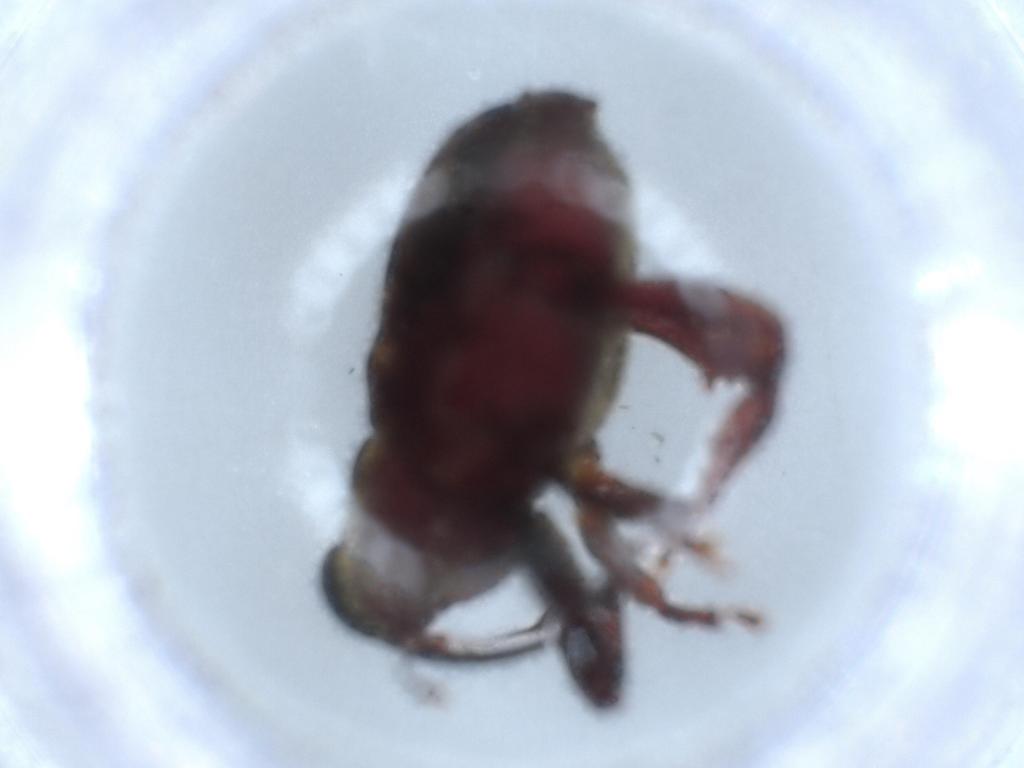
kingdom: Animalia
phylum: Arthropoda
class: Insecta
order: Coleoptera
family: Curculionidae
